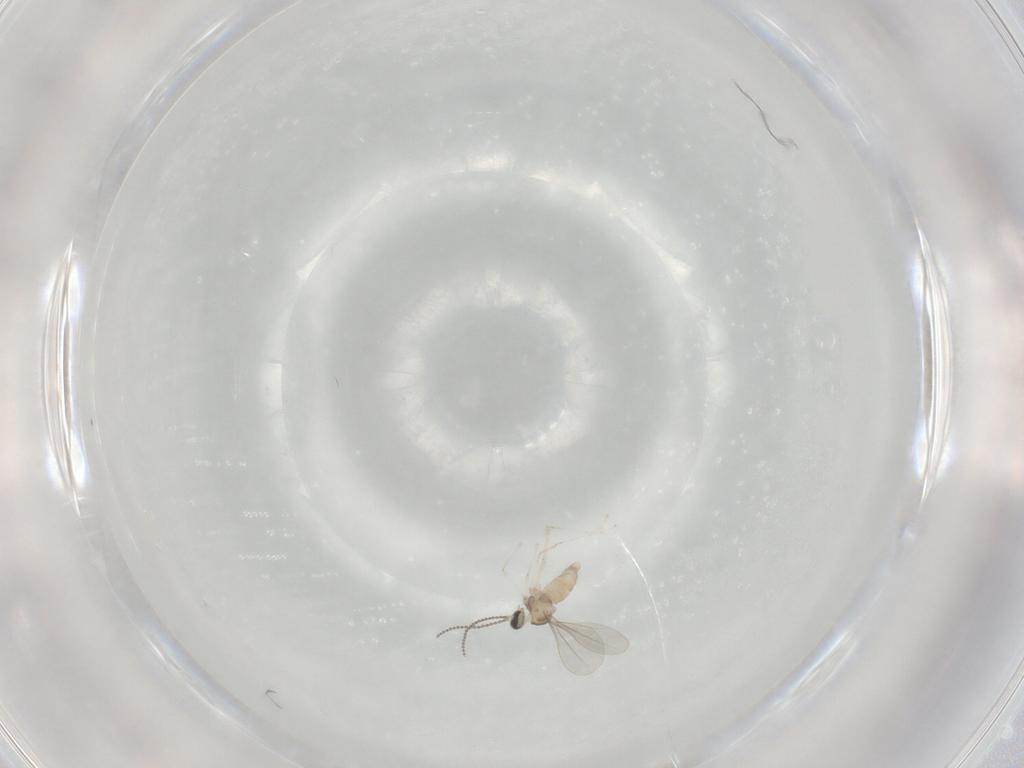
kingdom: Animalia
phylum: Arthropoda
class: Insecta
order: Diptera
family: Cecidomyiidae
